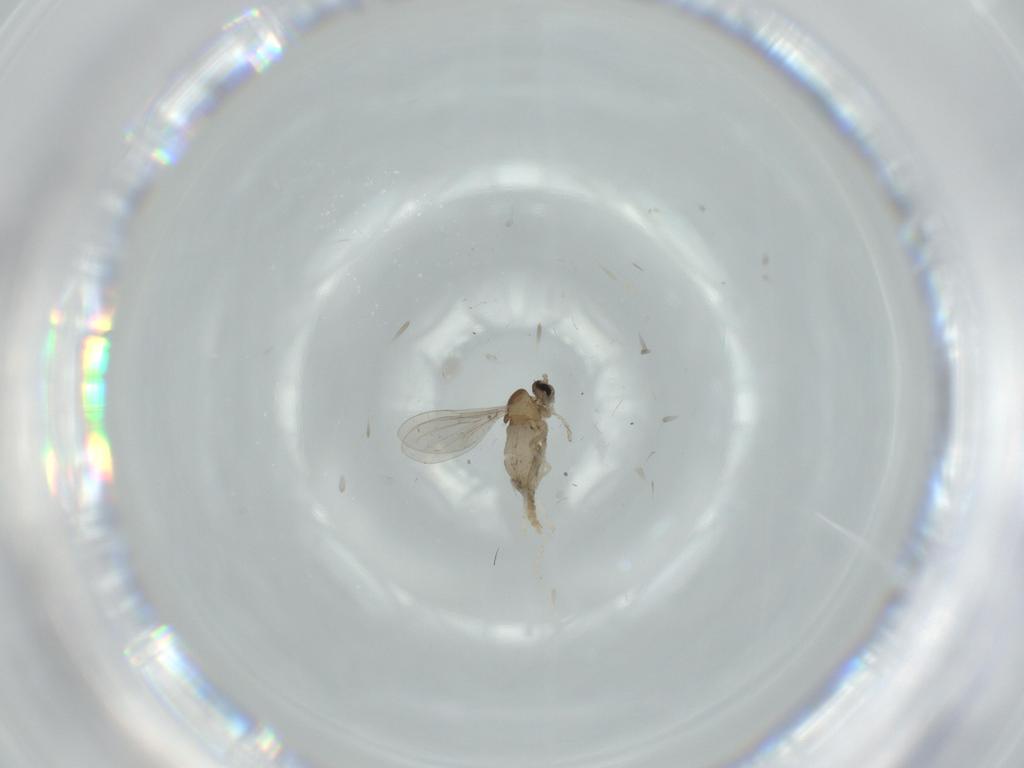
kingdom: Animalia
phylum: Arthropoda
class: Insecta
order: Diptera
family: Cecidomyiidae
